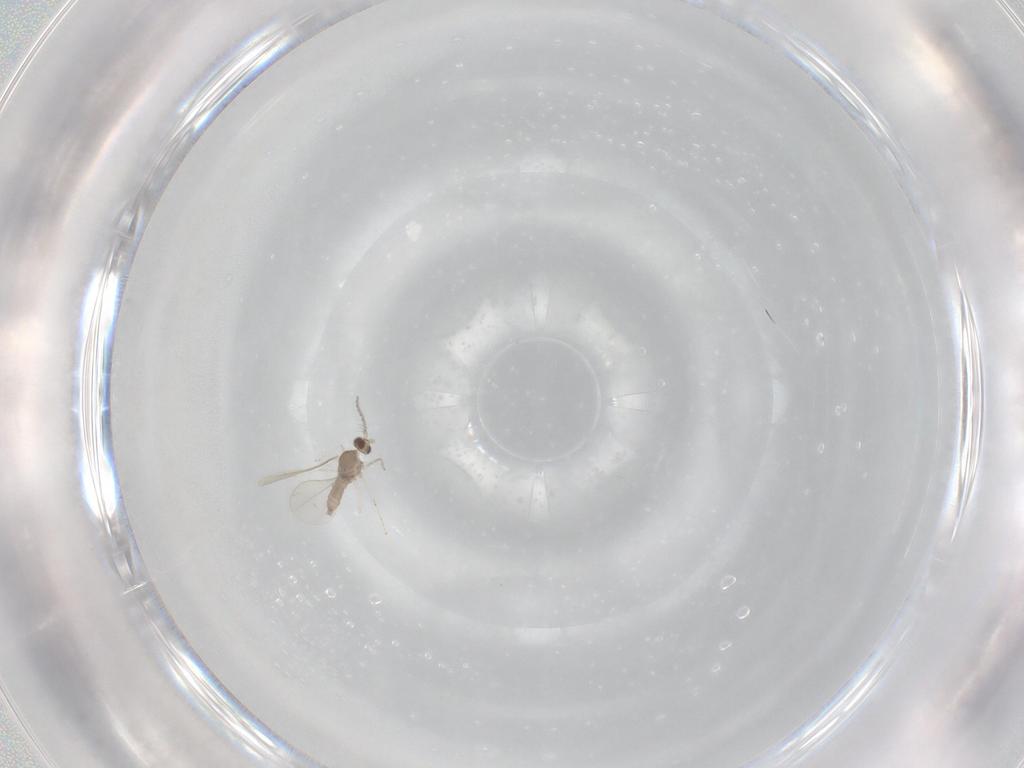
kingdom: Animalia
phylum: Arthropoda
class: Insecta
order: Diptera
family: Cecidomyiidae
